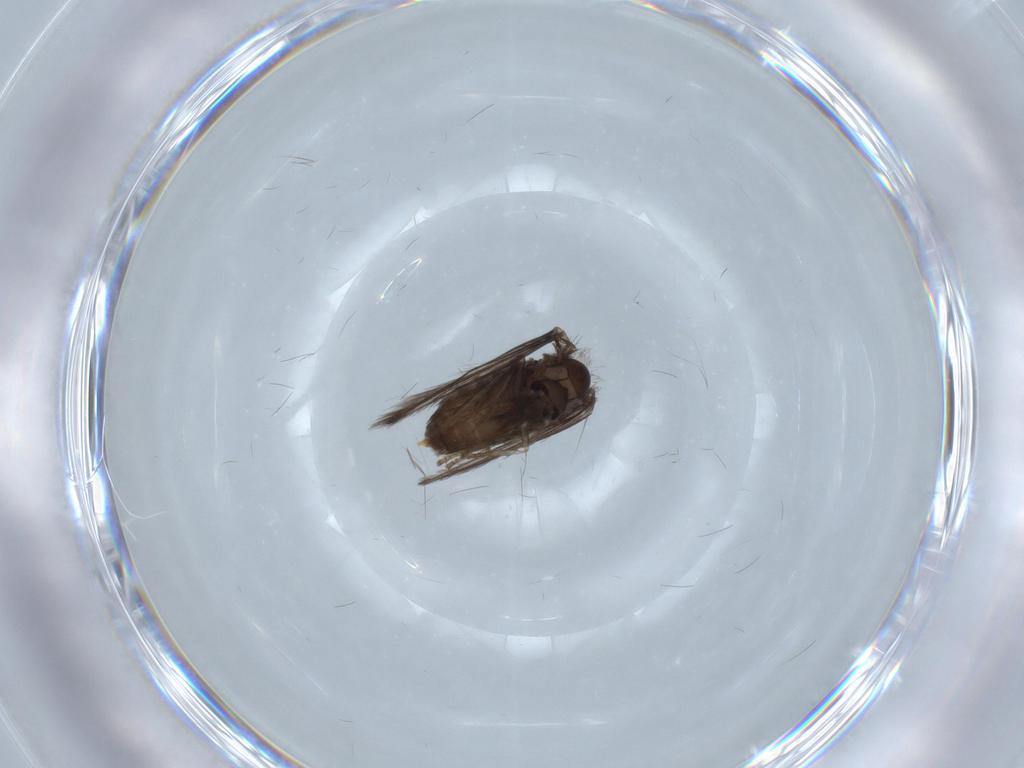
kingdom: Animalia
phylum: Arthropoda
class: Insecta
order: Diptera
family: Psychodidae
